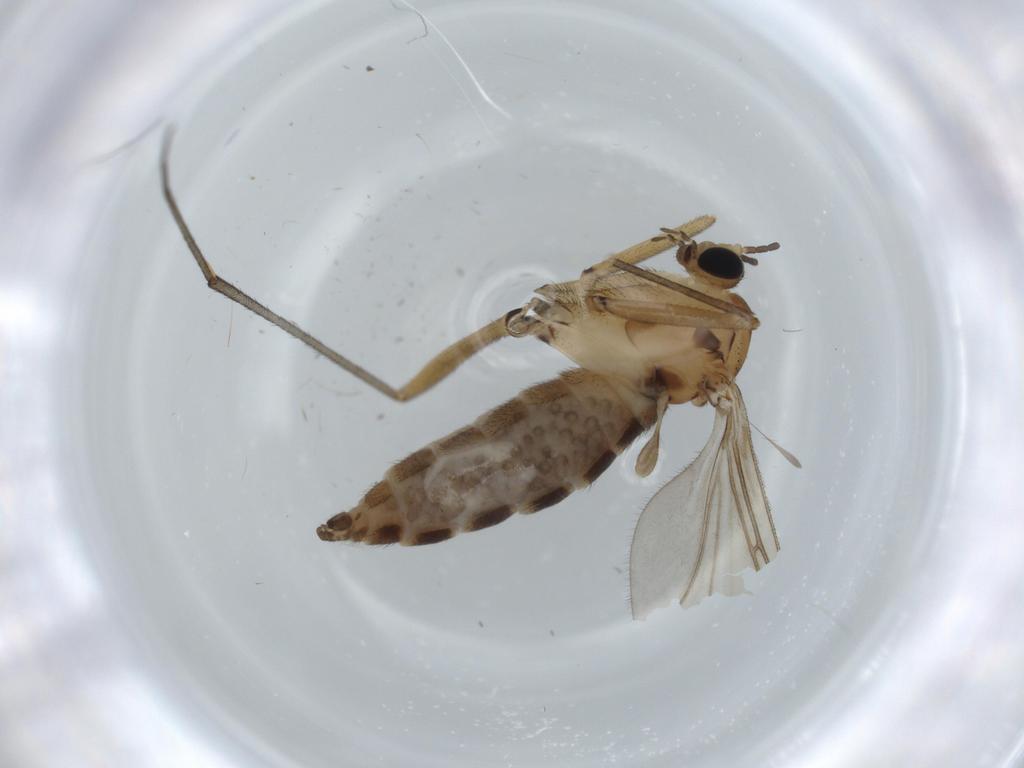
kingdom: Animalia
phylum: Arthropoda
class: Insecta
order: Diptera
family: Sciaridae
